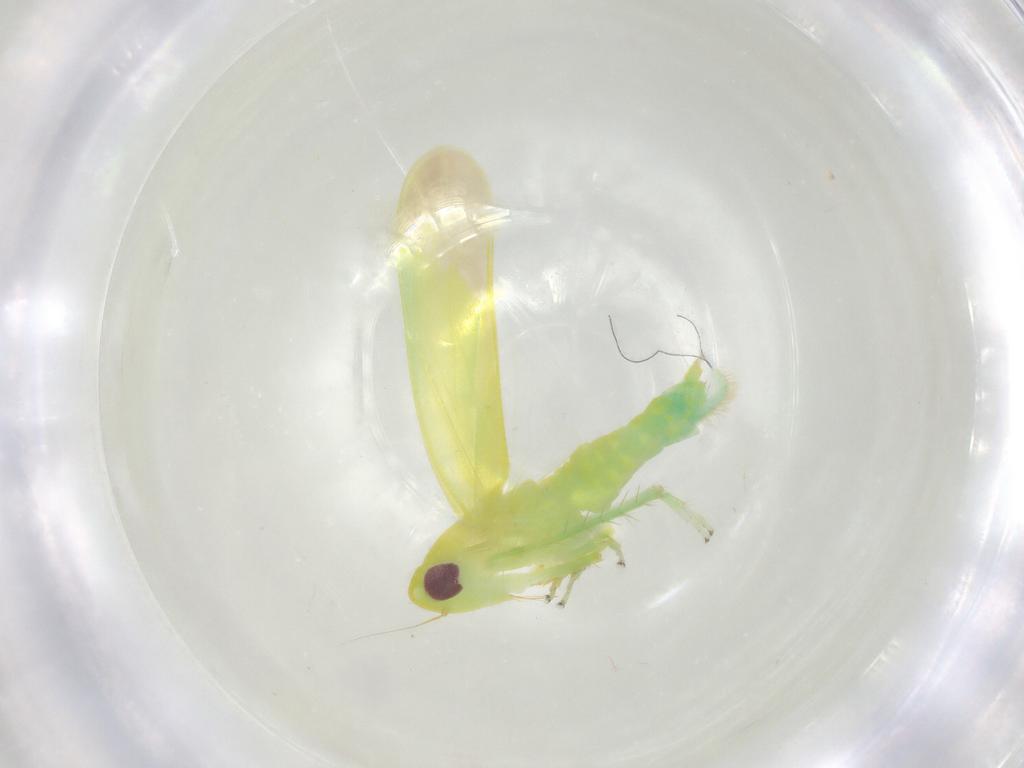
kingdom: Animalia
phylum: Arthropoda
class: Insecta
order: Hemiptera
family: Cicadellidae
